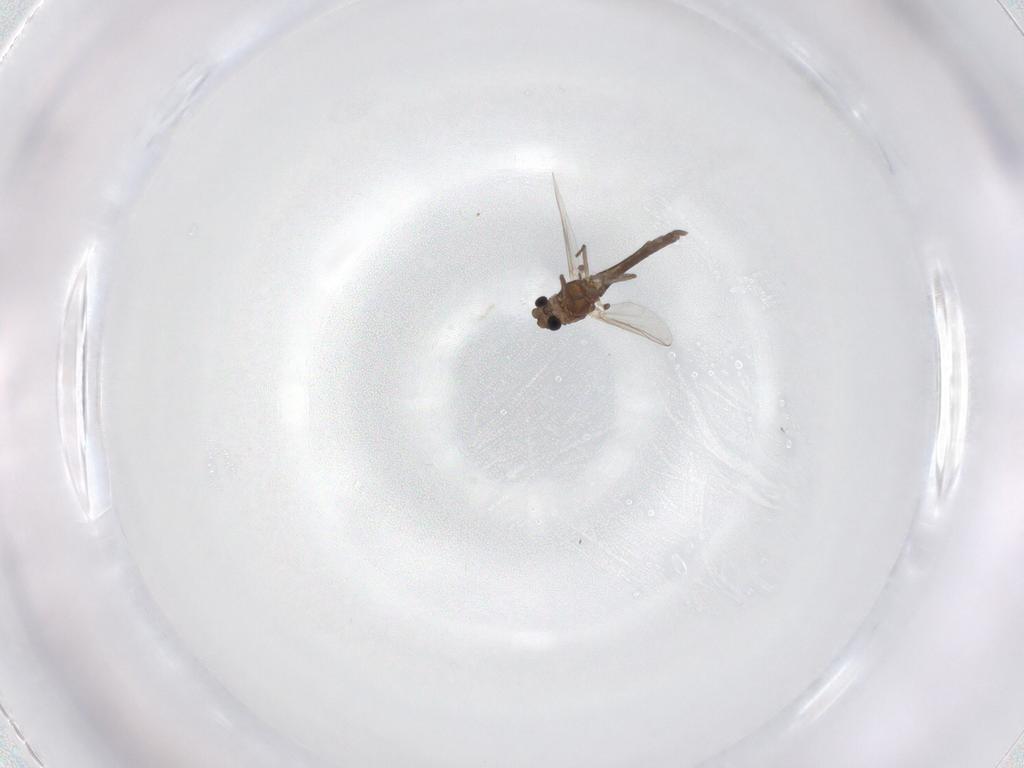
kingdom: Animalia
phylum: Arthropoda
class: Insecta
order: Diptera
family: Chironomidae
